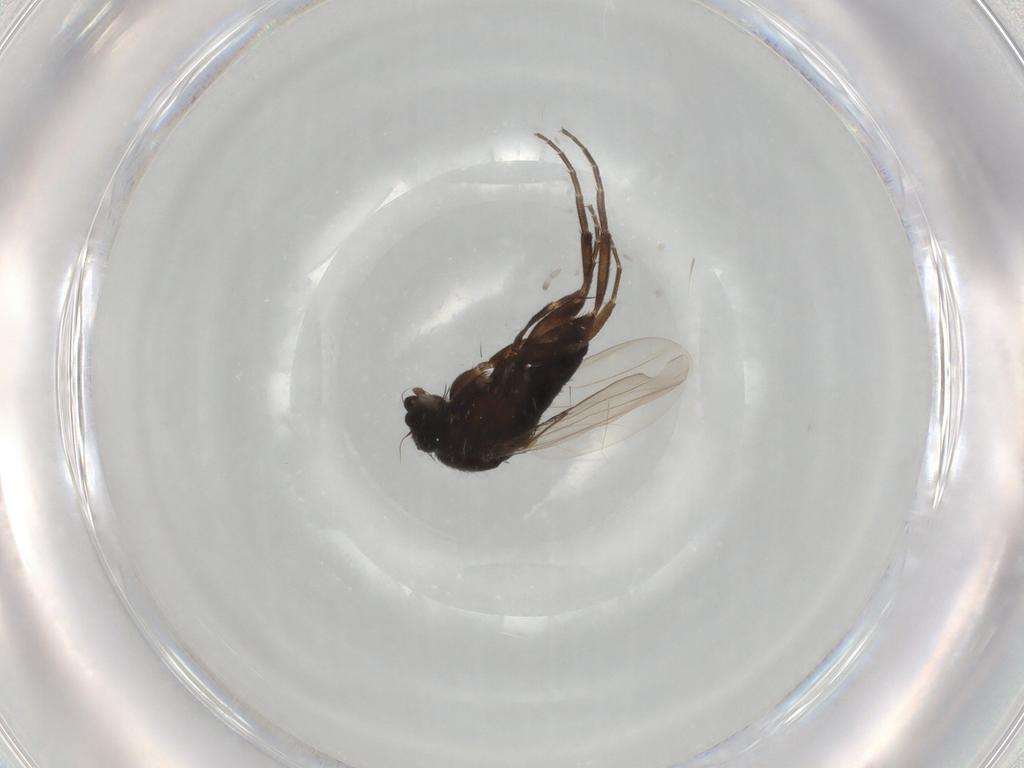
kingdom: Animalia
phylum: Arthropoda
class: Insecta
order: Diptera
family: Phoridae
